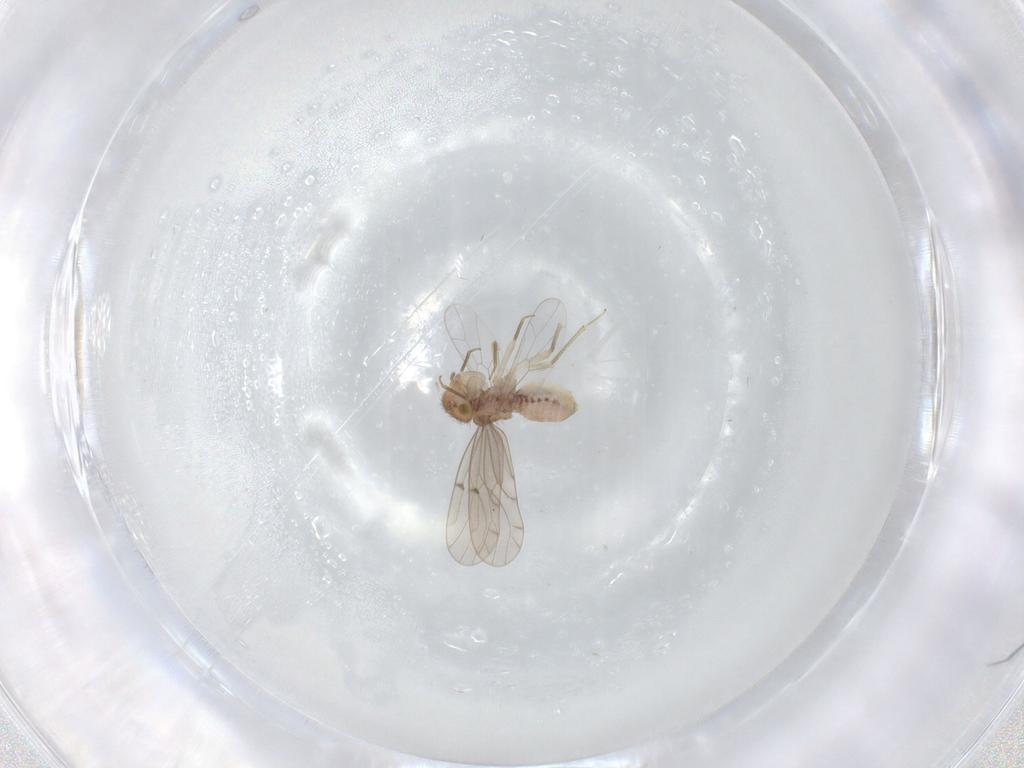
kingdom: Animalia
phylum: Arthropoda
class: Insecta
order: Psocodea
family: Ectopsocidae
